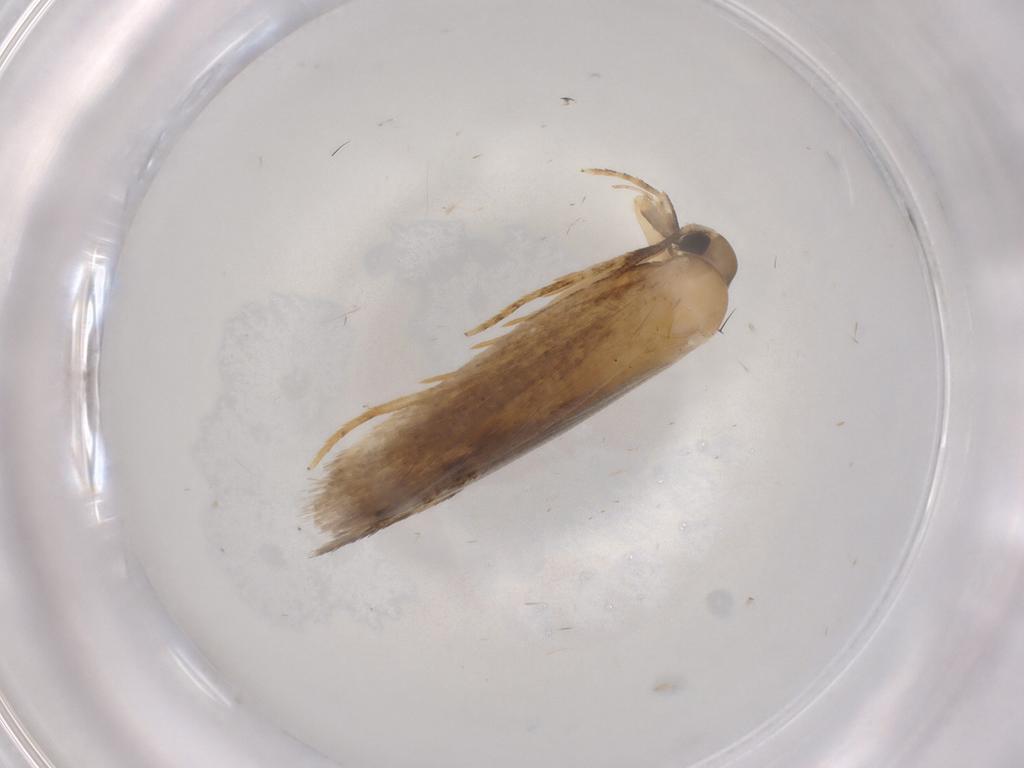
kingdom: Animalia
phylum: Arthropoda
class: Insecta
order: Lepidoptera
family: Autostichidae
